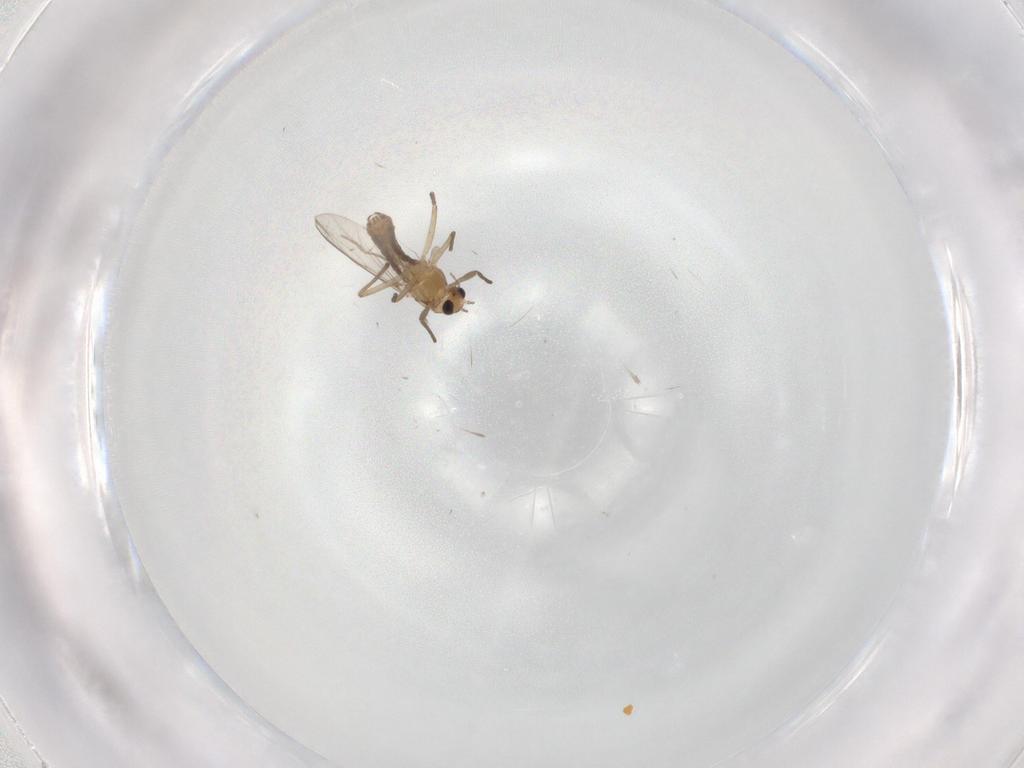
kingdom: Animalia
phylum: Arthropoda
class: Insecta
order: Diptera
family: Chironomidae
